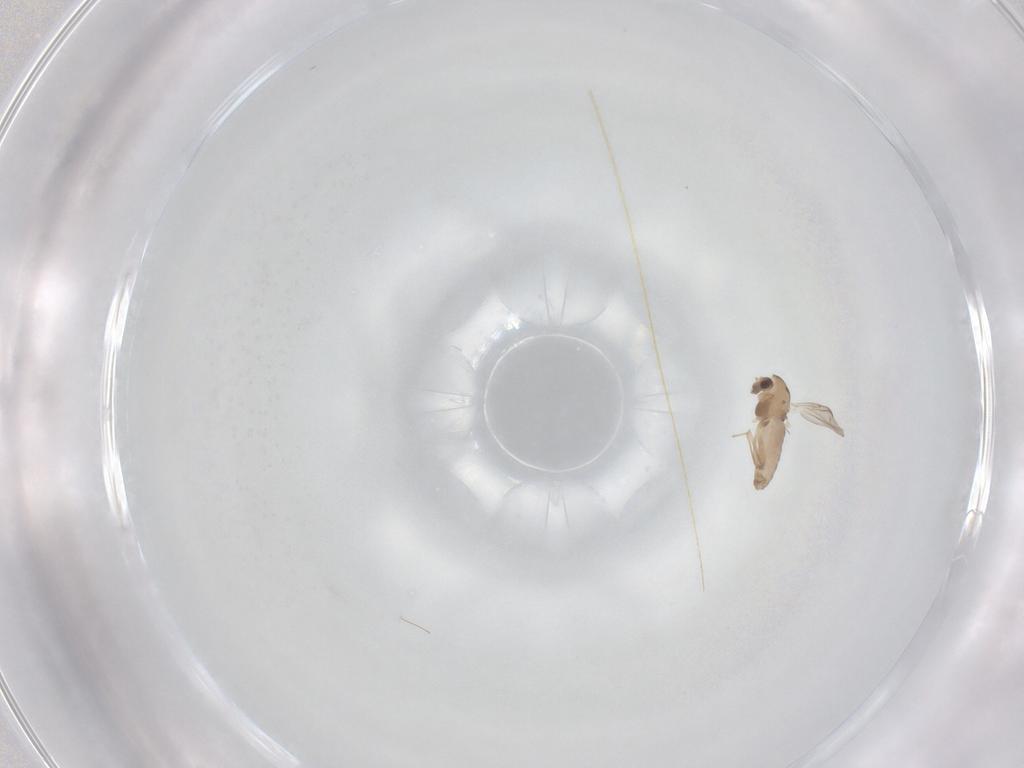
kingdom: Animalia
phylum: Arthropoda
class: Insecta
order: Diptera
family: Chironomidae
